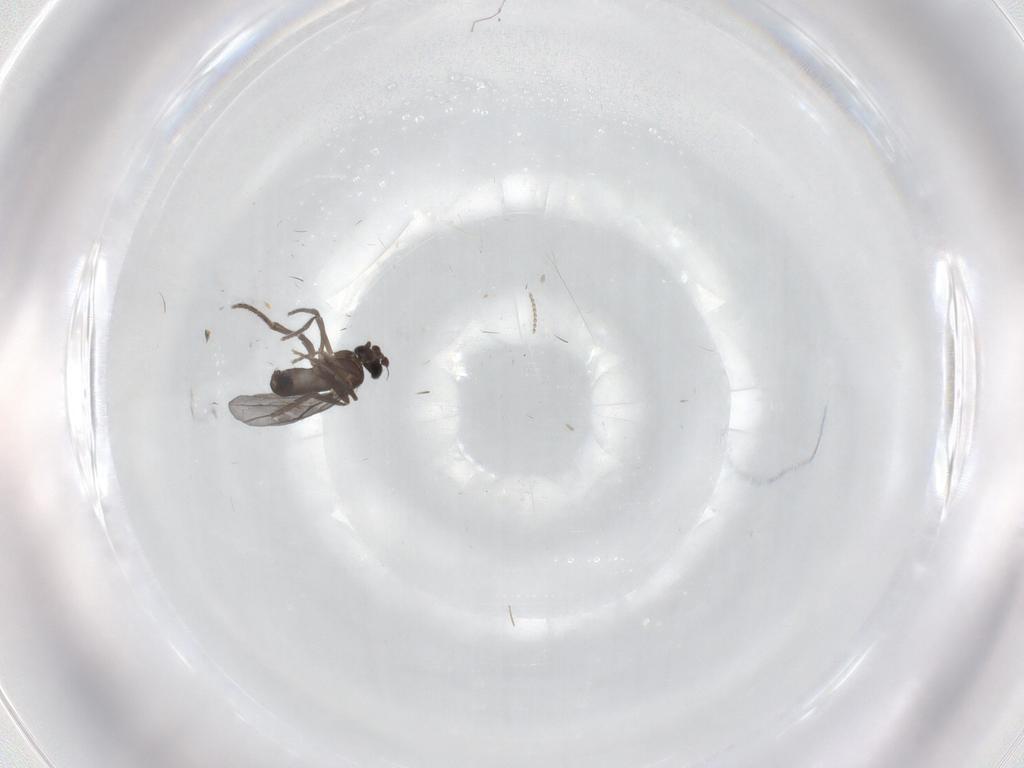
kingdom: Animalia
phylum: Arthropoda
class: Insecta
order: Diptera
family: Phoridae
